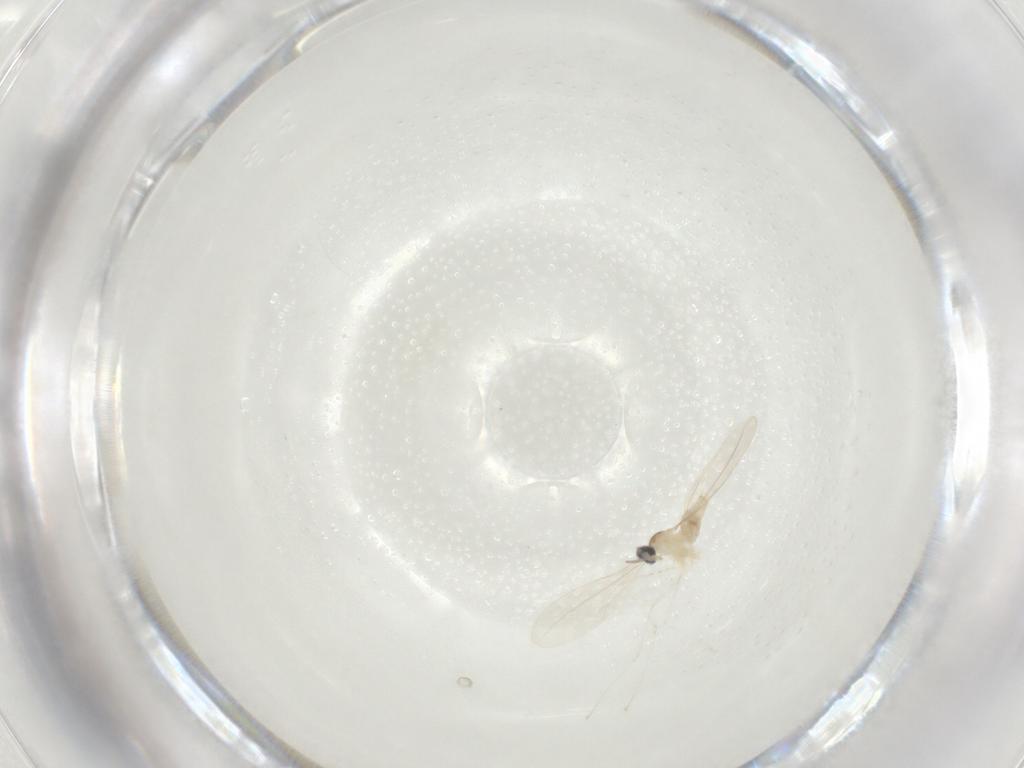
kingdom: Animalia
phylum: Arthropoda
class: Insecta
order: Diptera
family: Cecidomyiidae
